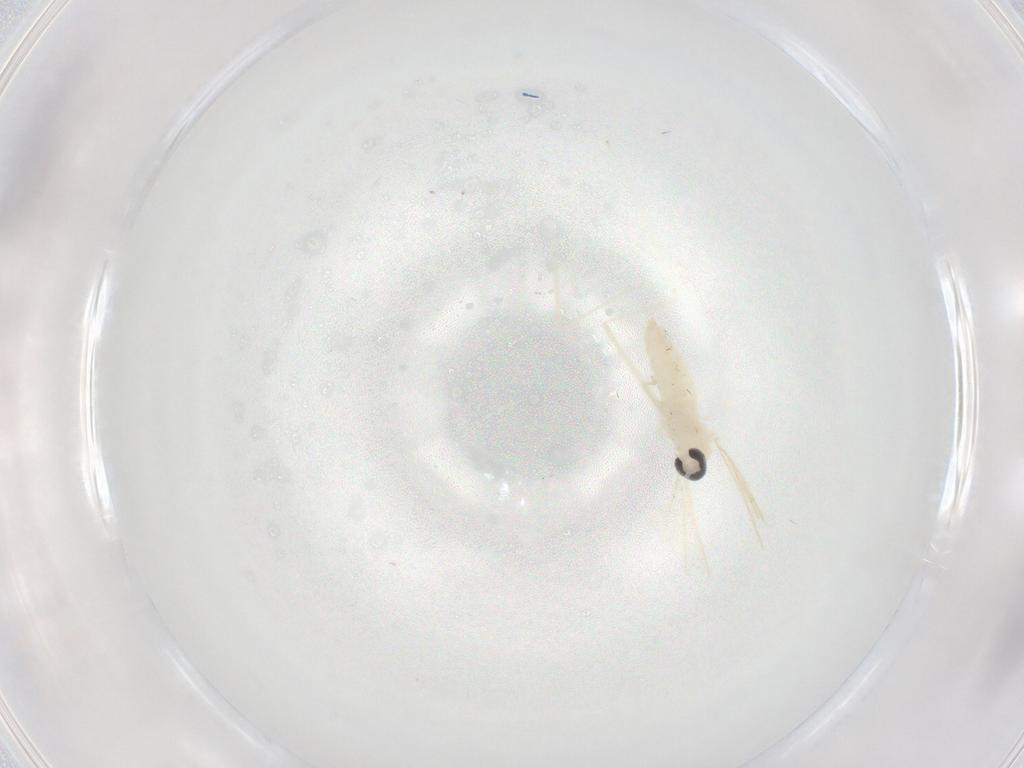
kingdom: Animalia
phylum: Arthropoda
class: Insecta
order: Diptera
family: Cecidomyiidae
